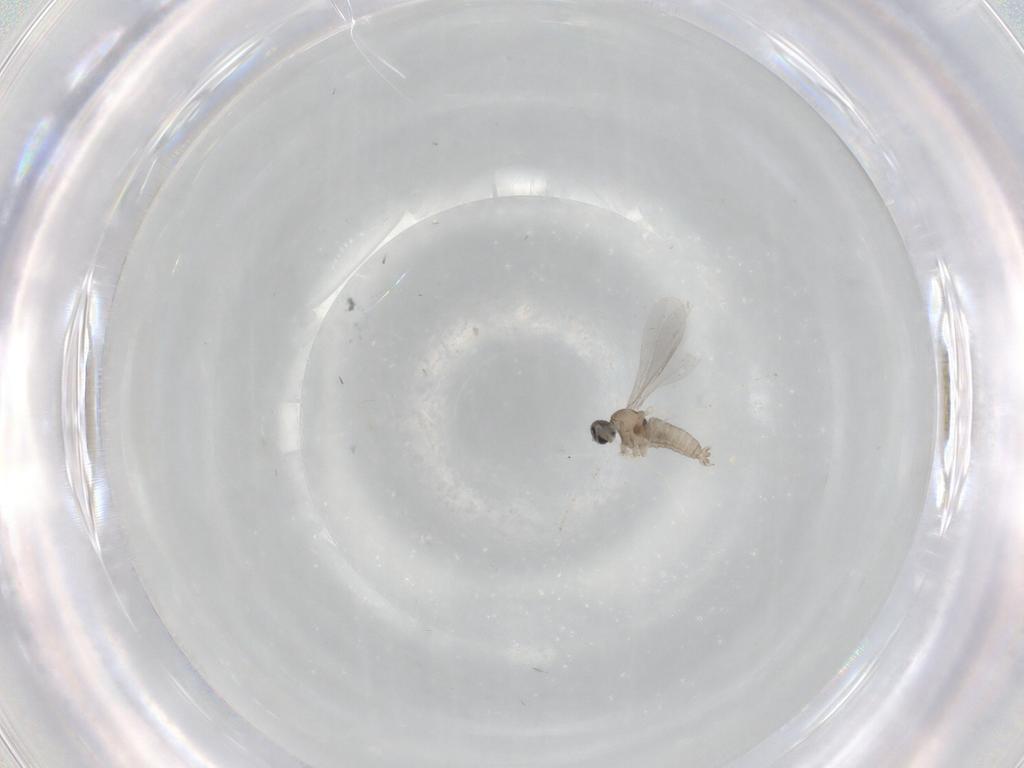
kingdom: Animalia
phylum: Arthropoda
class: Insecta
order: Diptera
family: Cecidomyiidae
